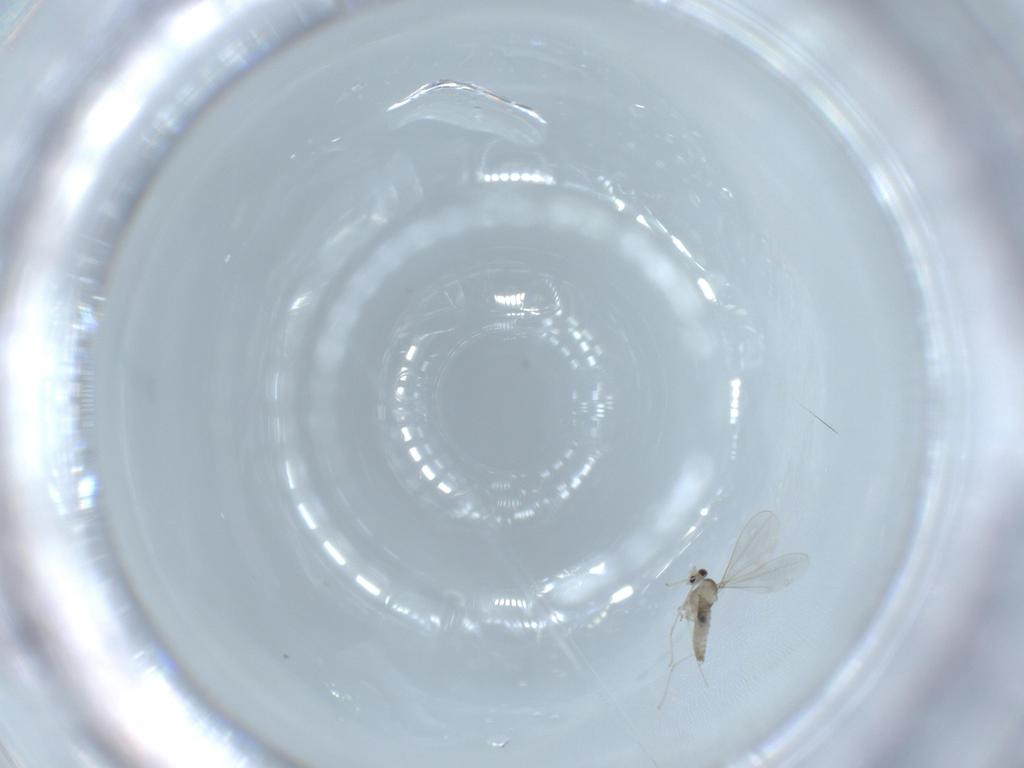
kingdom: Animalia
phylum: Arthropoda
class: Insecta
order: Diptera
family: Cecidomyiidae
